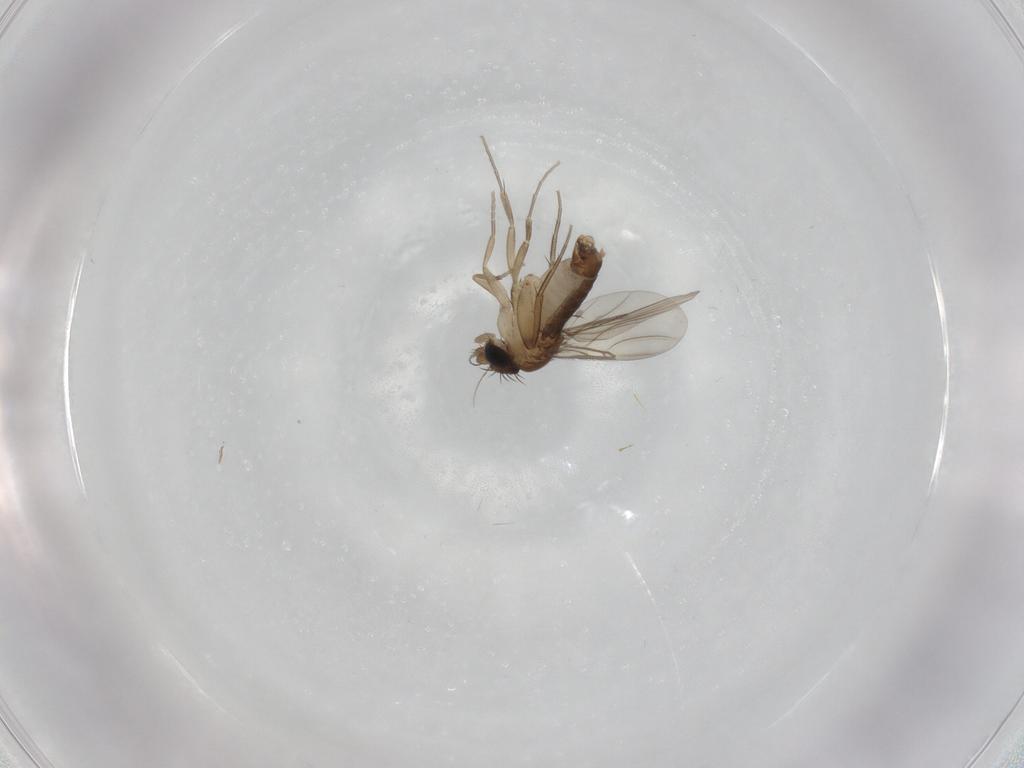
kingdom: Animalia
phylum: Arthropoda
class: Insecta
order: Diptera
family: Phoridae
